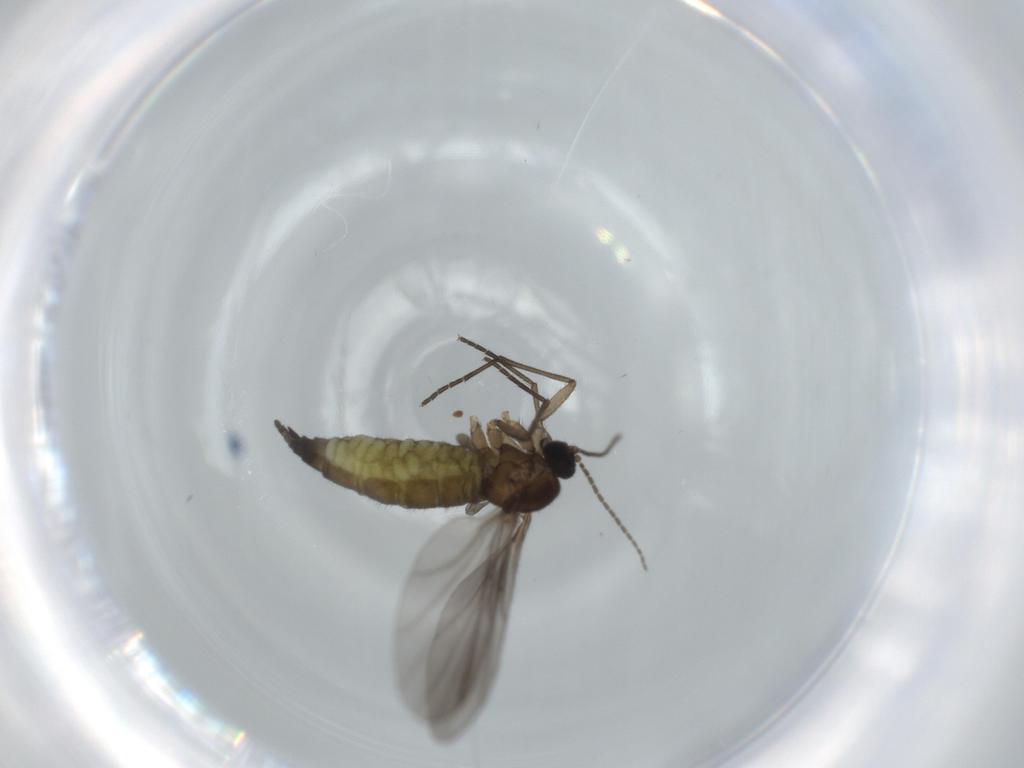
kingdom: Animalia
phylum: Arthropoda
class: Insecta
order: Diptera
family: Sciaridae
